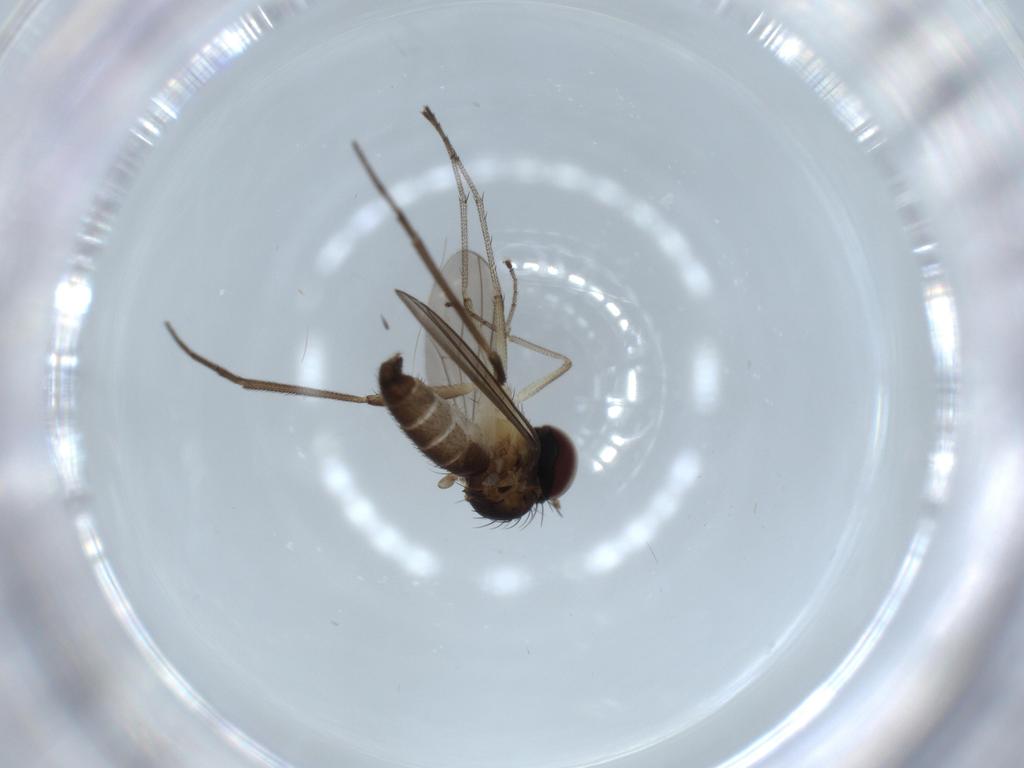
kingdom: Animalia
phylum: Arthropoda
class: Insecta
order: Diptera
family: Dolichopodidae
